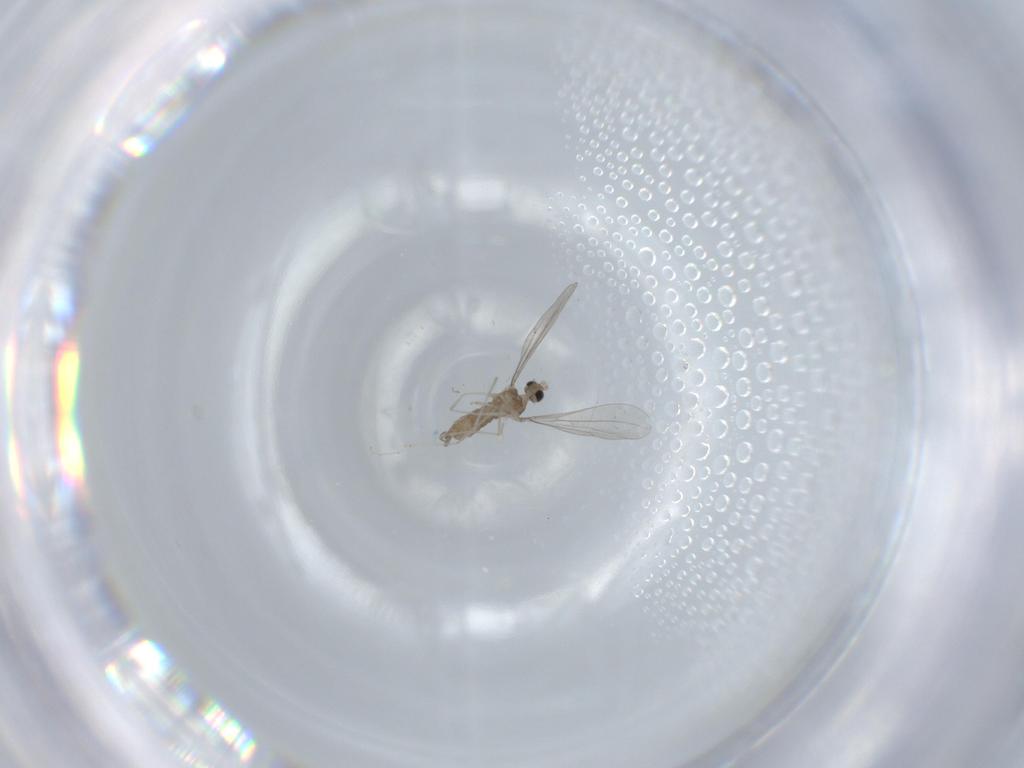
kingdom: Animalia
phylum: Arthropoda
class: Insecta
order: Diptera
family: Cecidomyiidae
